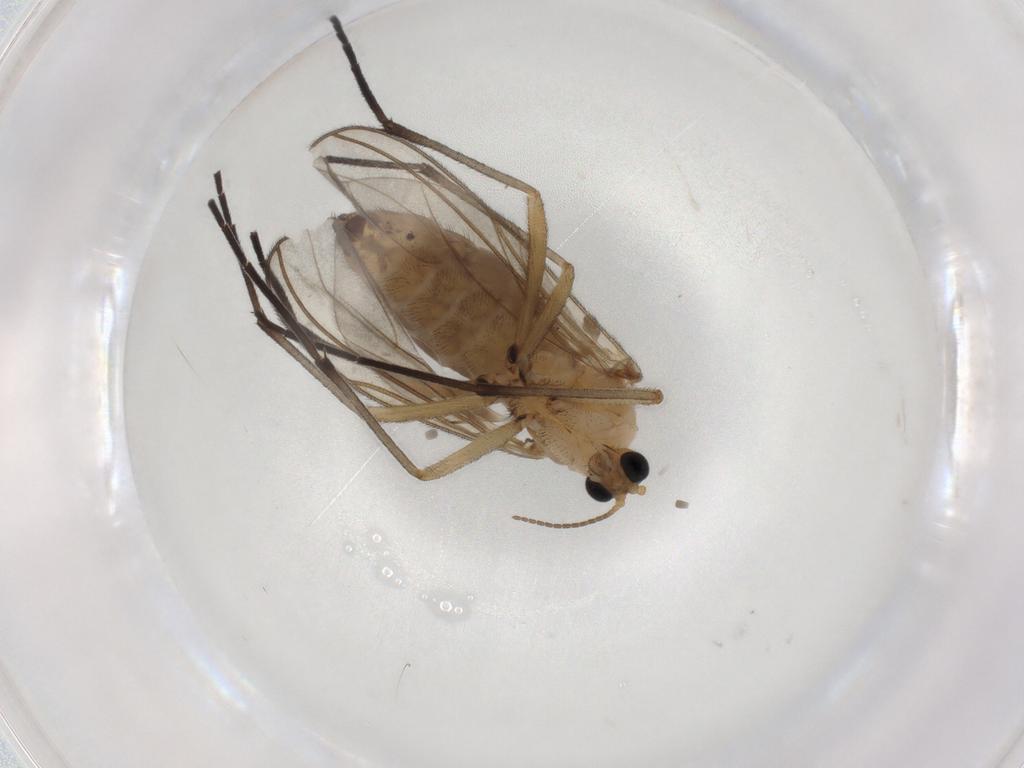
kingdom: Animalia
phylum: Arthropoda
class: Insecta
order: Diptera
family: Sciaridae
